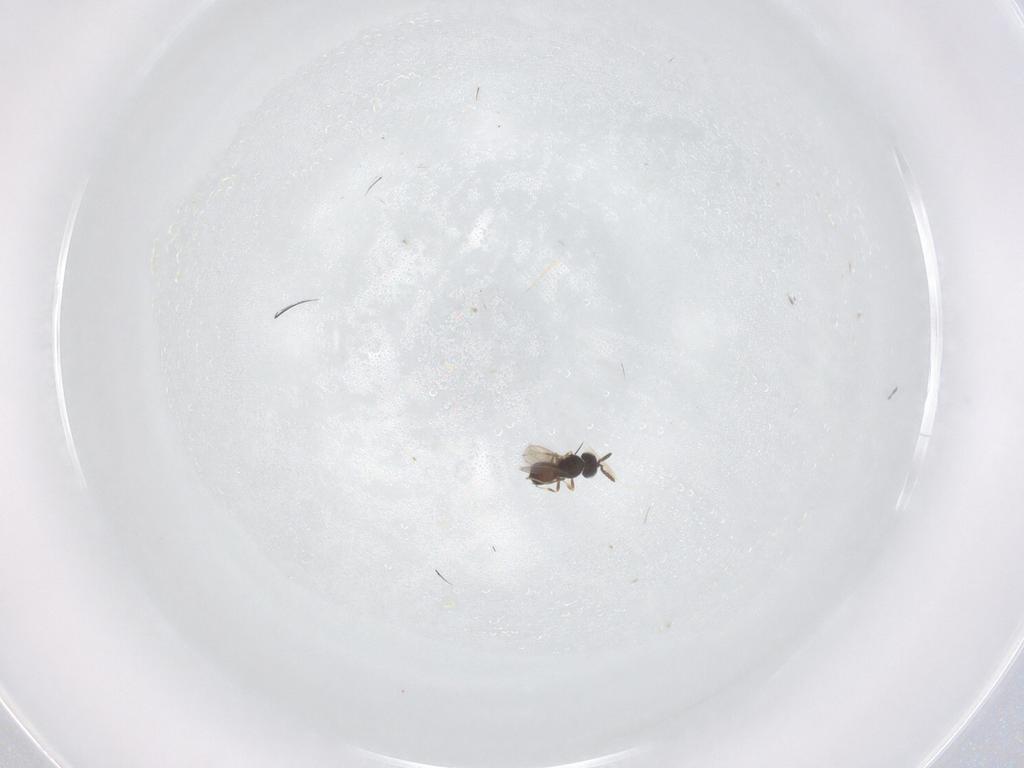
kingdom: Animalia
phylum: Arthropoda
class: Insecta
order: Hymenoptera
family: Scelionidae
